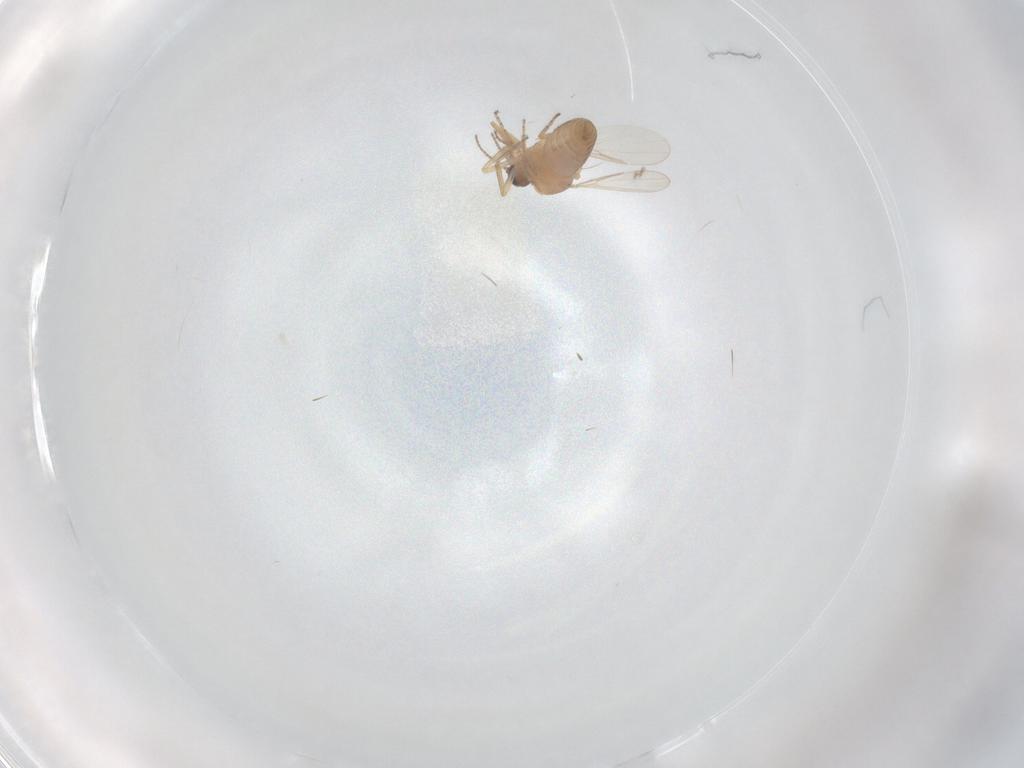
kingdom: Animalia
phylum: Arthropoda
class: Insecta
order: Diptera
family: Ceratopogonidae
